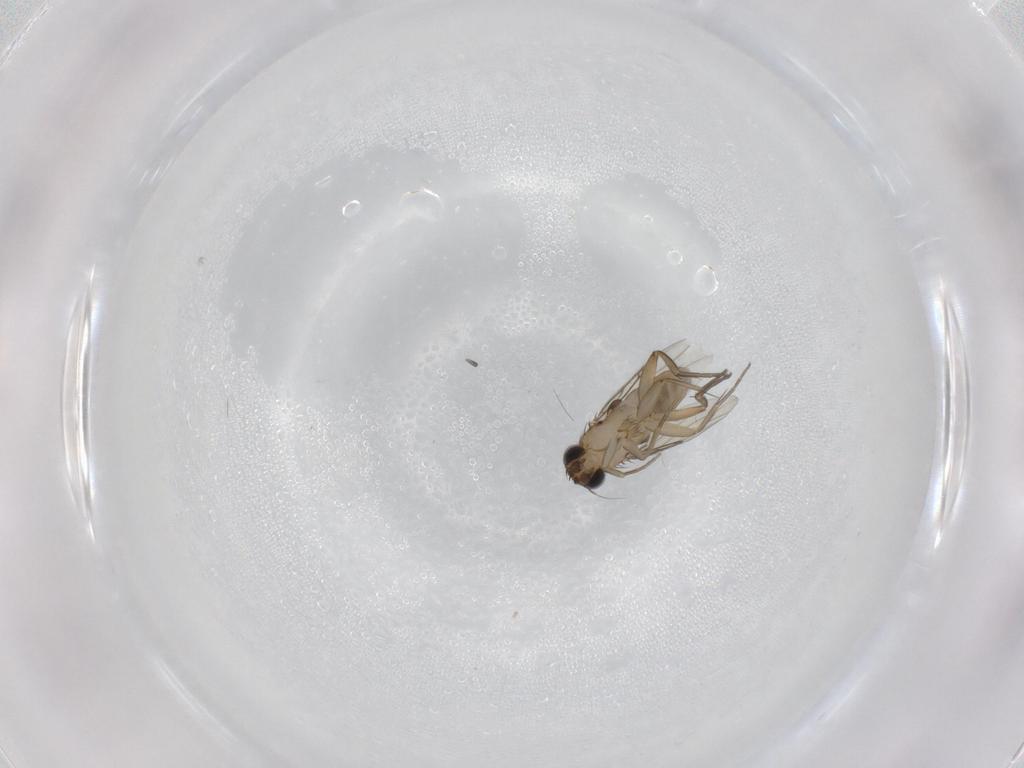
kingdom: Animalia
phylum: Arthropoda
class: Insecta
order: Diptera
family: Phoridae
